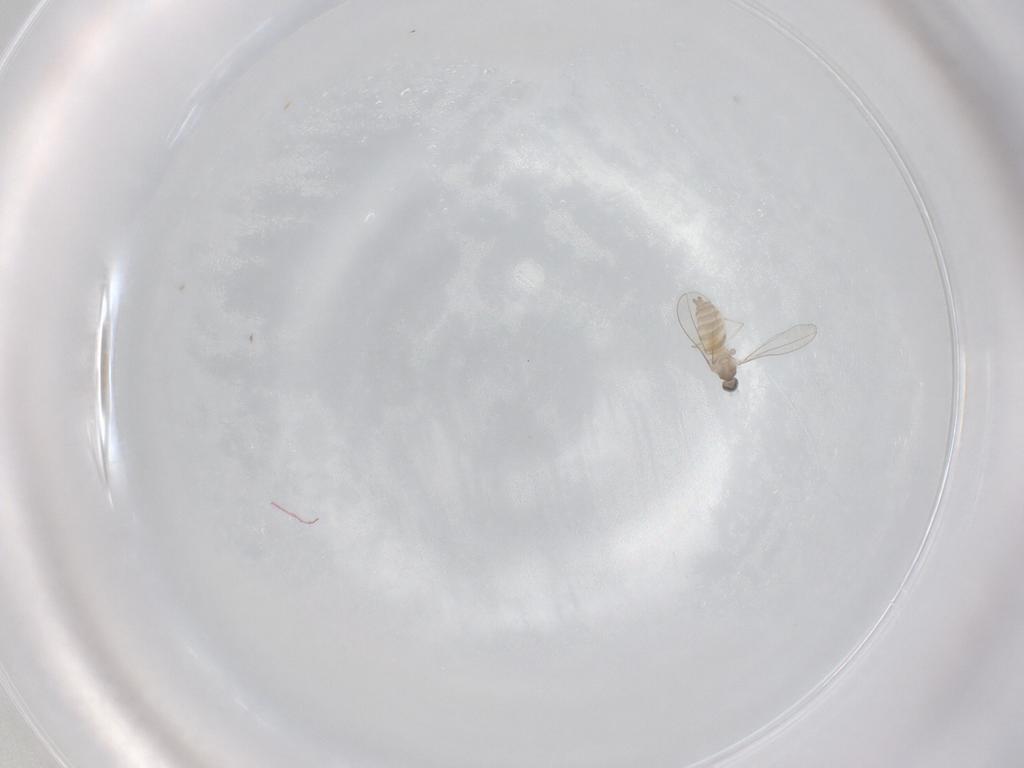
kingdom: Animalia
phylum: Arthropoda
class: Insecta
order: Diptera
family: Cecidomyiidae
